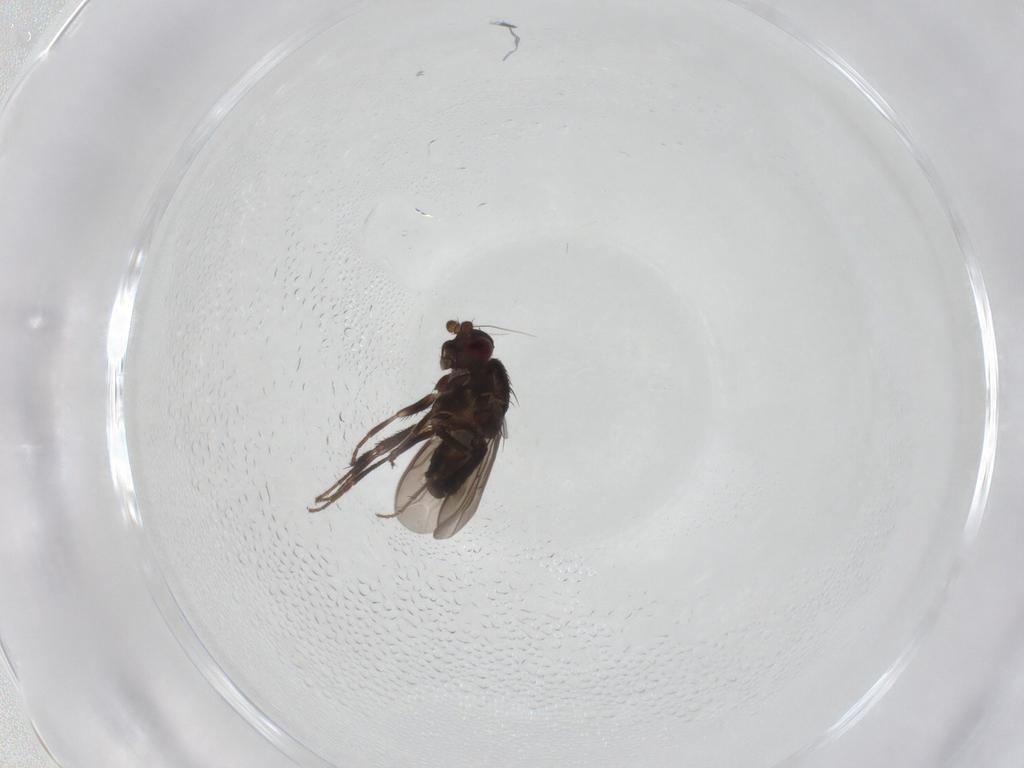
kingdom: Animalia
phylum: Arthropoda
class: Insecta
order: Diptera
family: Sphaeroceridae
